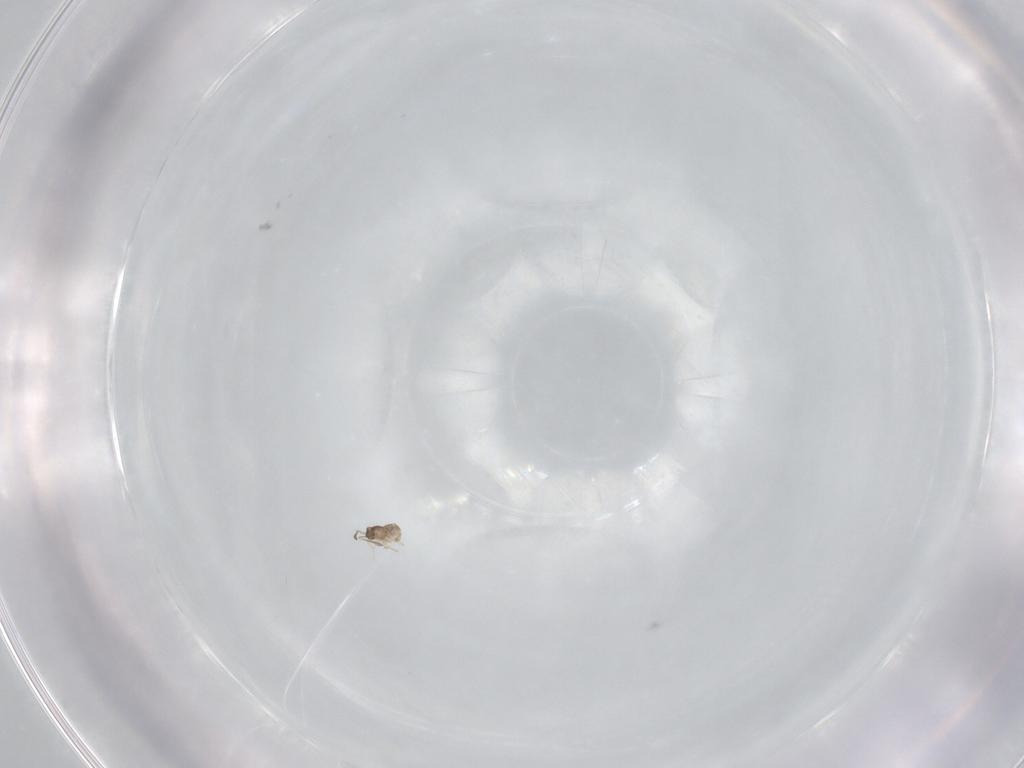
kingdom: Animalia
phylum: Arthropoda
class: Insecta
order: Hymenoptera
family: Mymaridae
